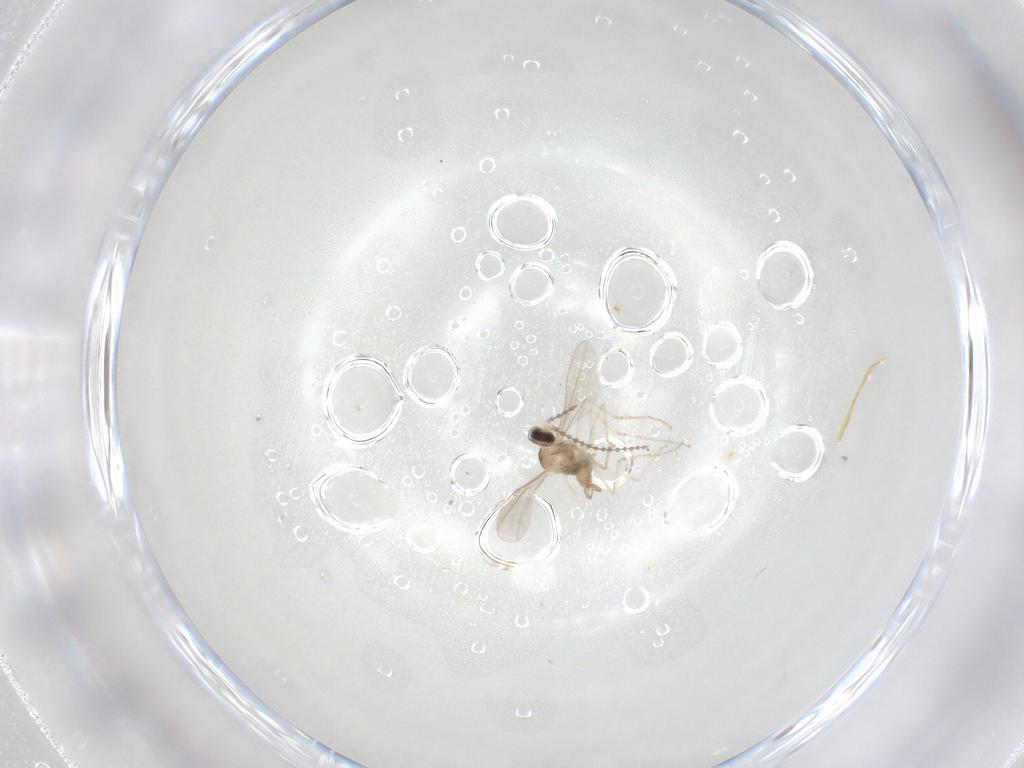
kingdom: Animalia
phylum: Arthropoda
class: Insecta
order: Diptera
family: Cecidomyiidae
